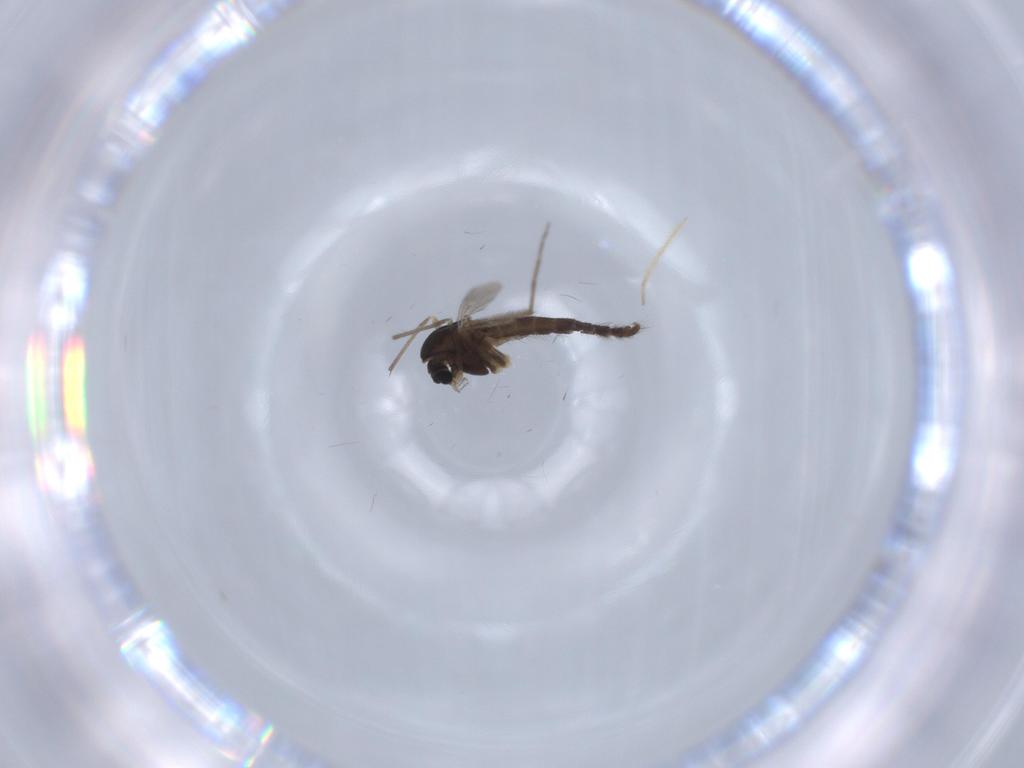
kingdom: Animalia
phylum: Arthropoda
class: Insecta
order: Diptera
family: Chironomidae
